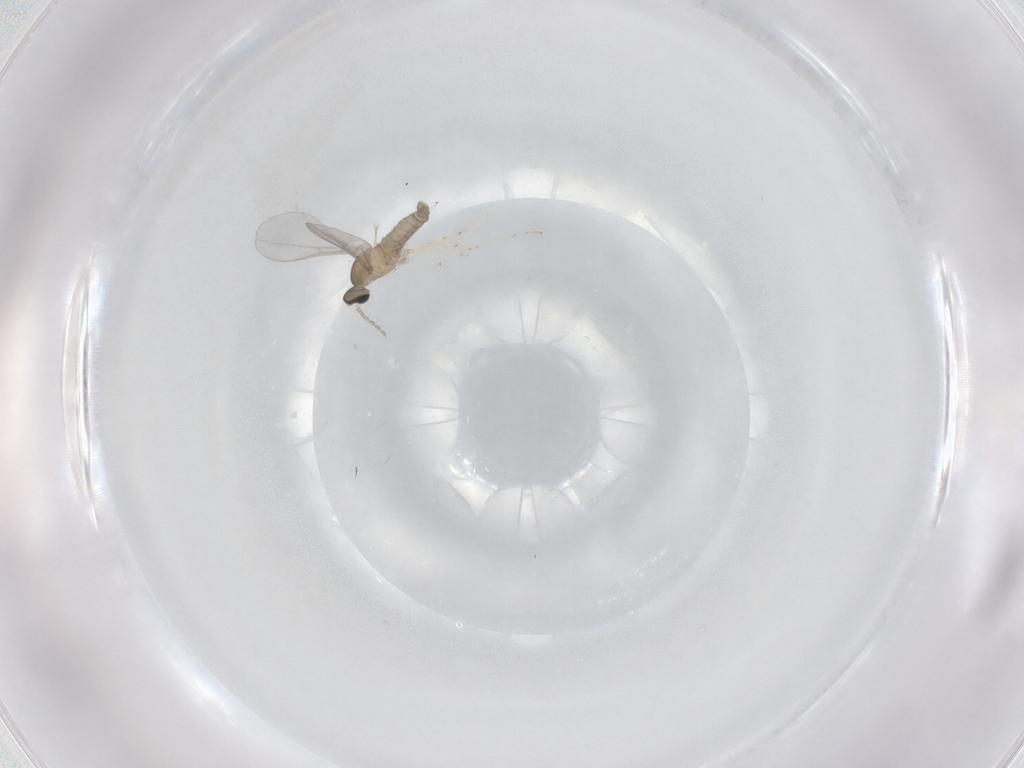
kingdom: Animalia
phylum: Arthropoda
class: Insecta
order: Diptera
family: Cecidomyiidae
